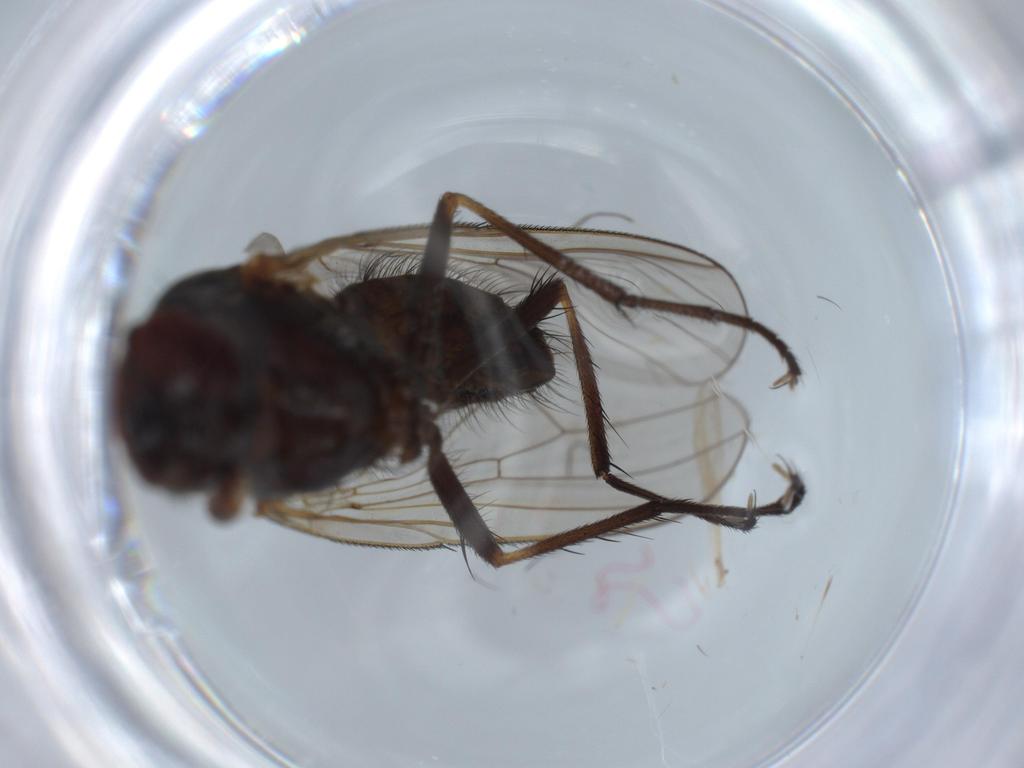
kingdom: Animalia
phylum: Arthropoda
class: Insecta
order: Diptera
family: Anthomyiidae
